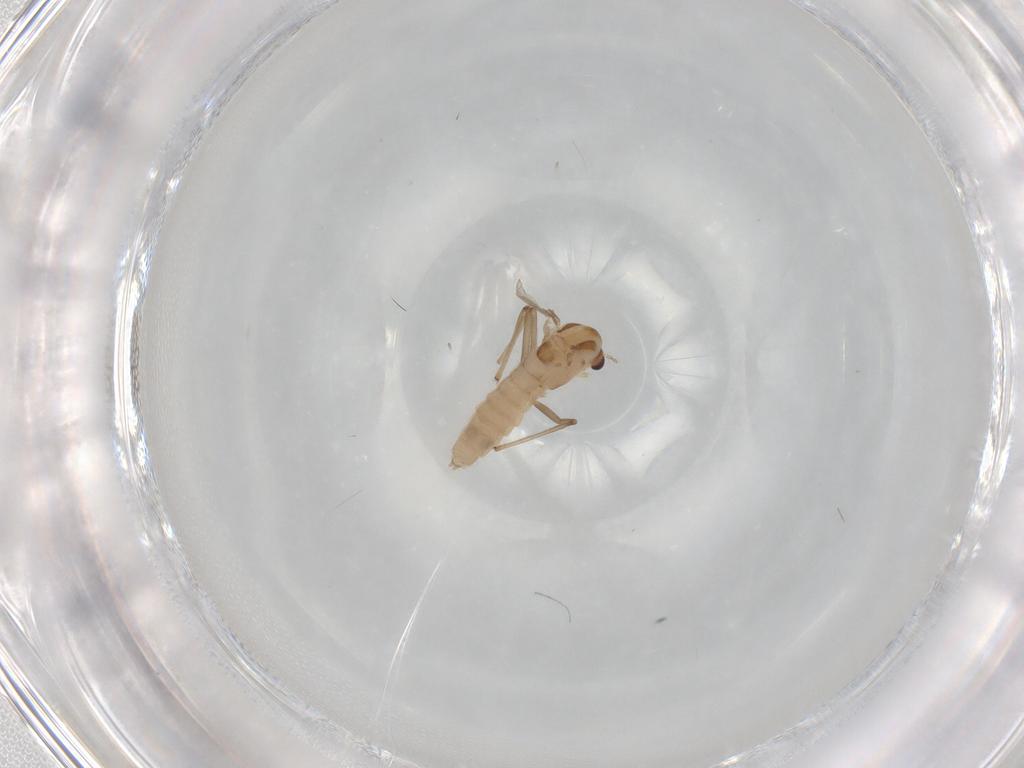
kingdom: Animalia
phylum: Arthropoda
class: Insecta
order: Diptera
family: Chironomidae
